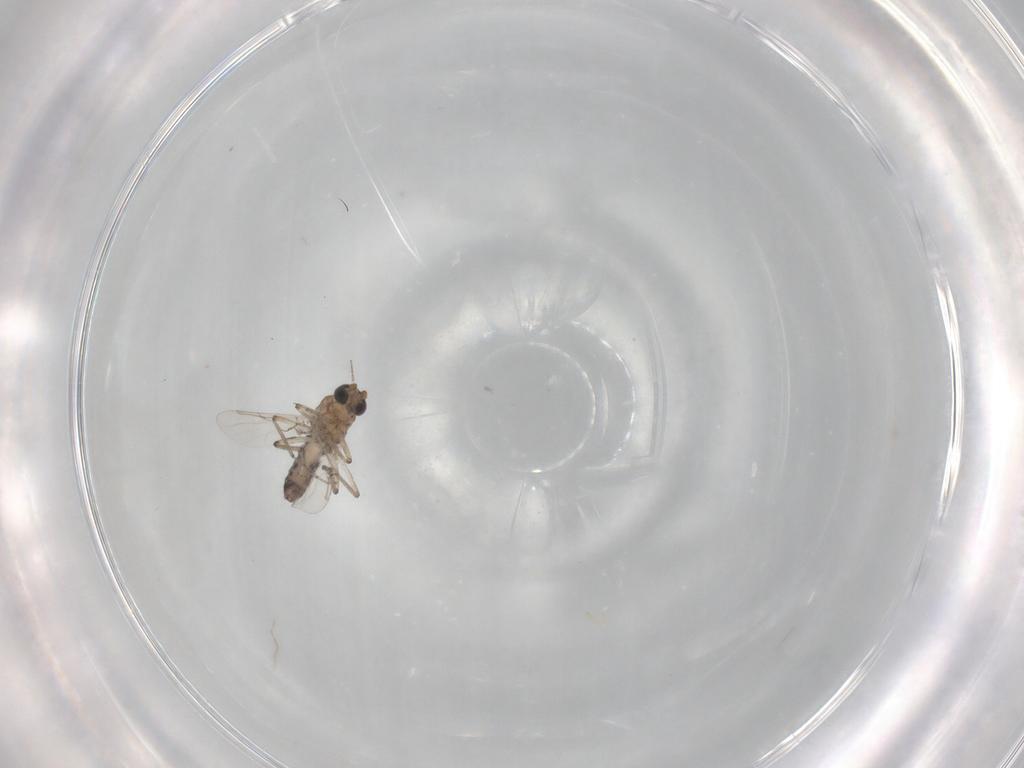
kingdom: Animalia
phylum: Arthropoda
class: Insecta
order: Diptera
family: Ceratopogonidae
